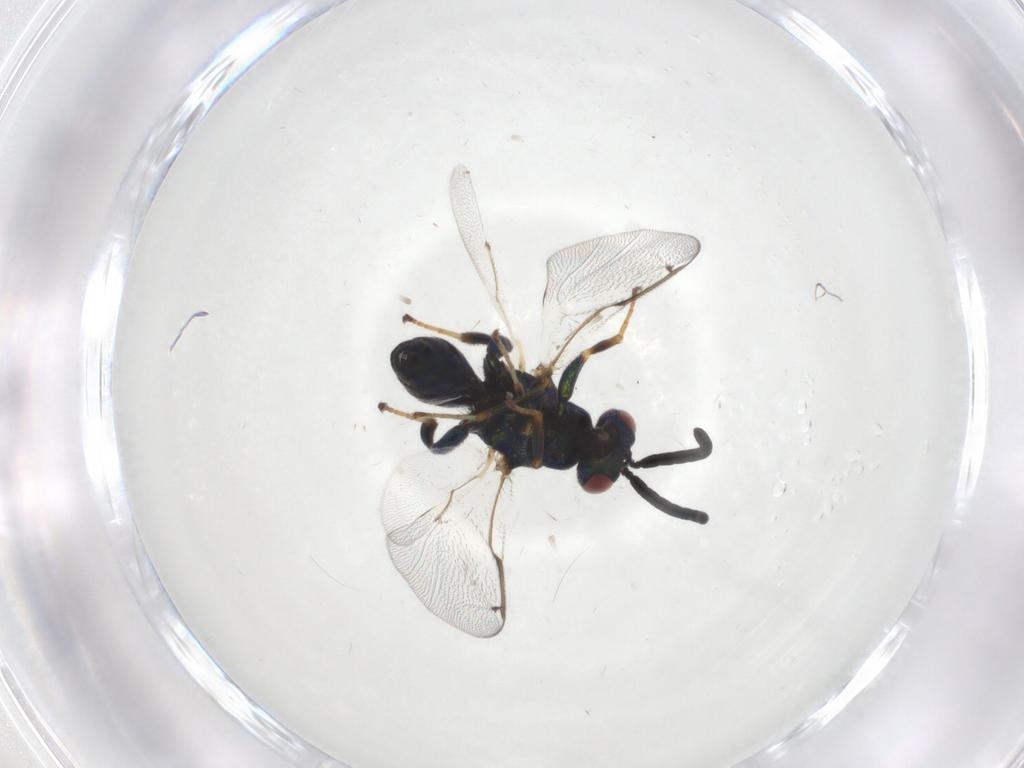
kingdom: Animalia
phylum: Arthropoda
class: Insecta
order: Hymenoptera
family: Torymidae
